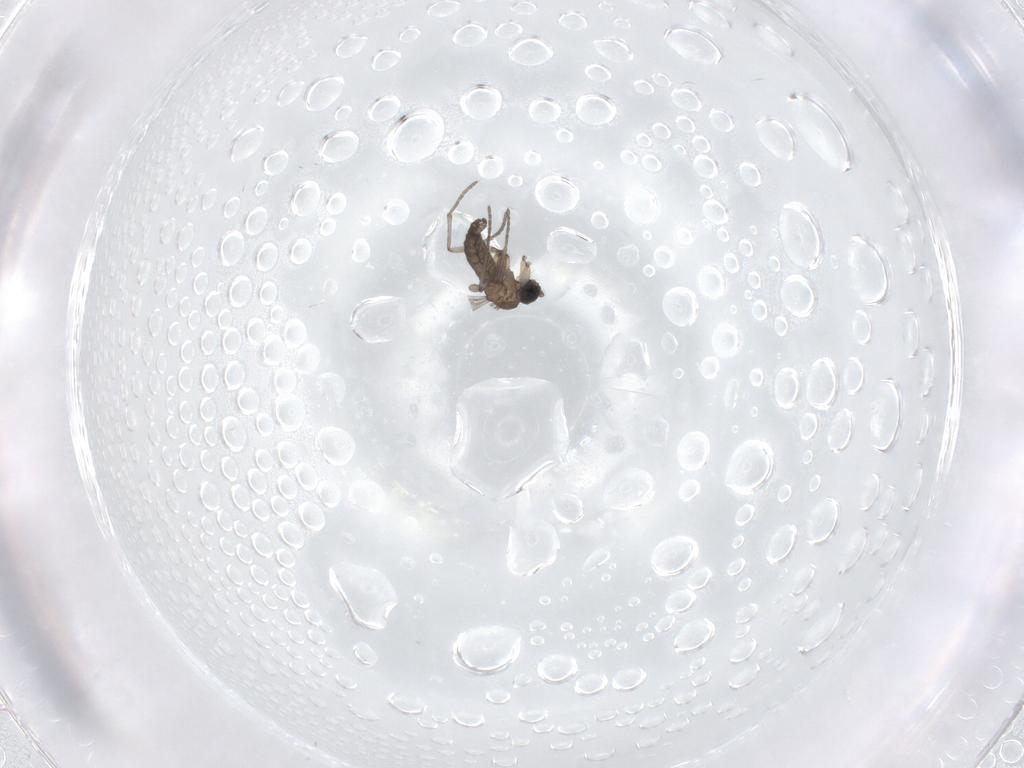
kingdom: Animalia
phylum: Arthropoda
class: Insecta
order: Diptera
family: Sciaridae
